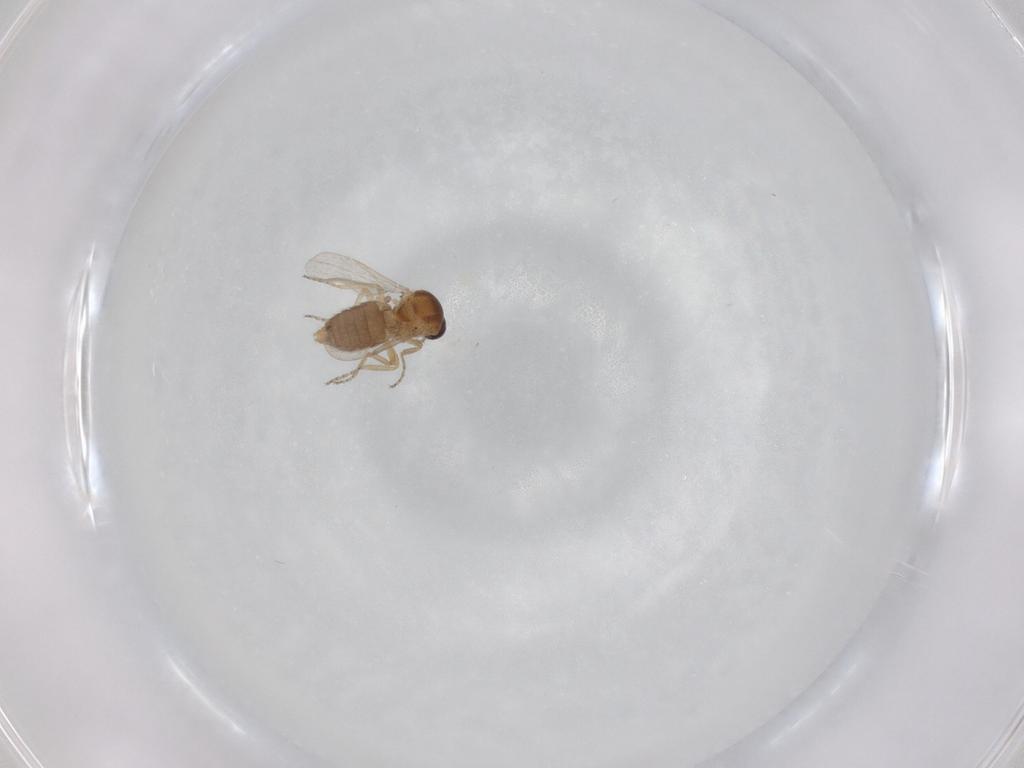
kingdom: Animalia
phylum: Arthropoda
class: Insecta
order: Diptera
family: Ceratopogonidae
